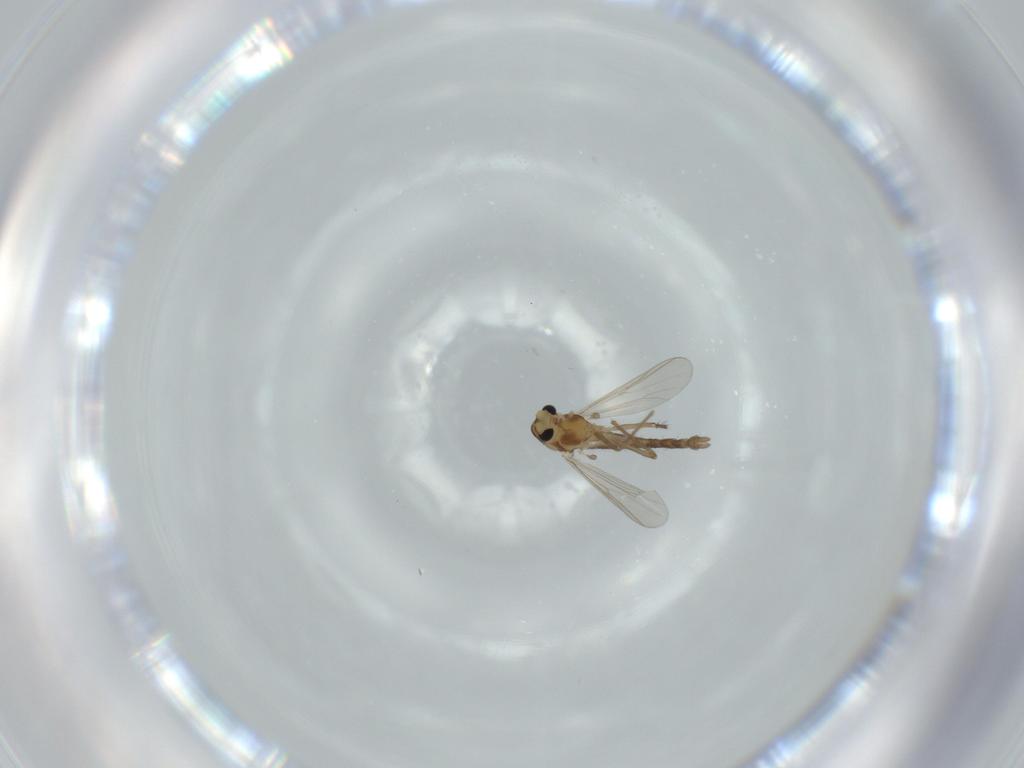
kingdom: Animalia
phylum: Arthropoda
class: Insecta
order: Diptera
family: Chironomidae
